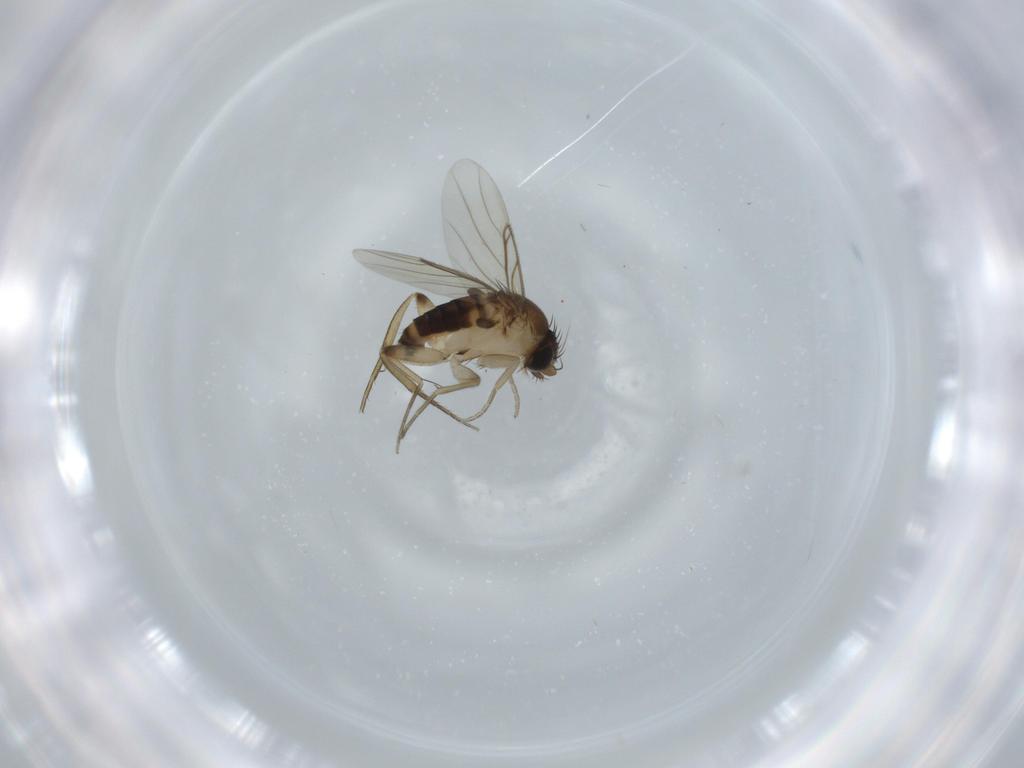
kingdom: Animalia
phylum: Arthropoda
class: Insecta
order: Diptera
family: Phoridae
